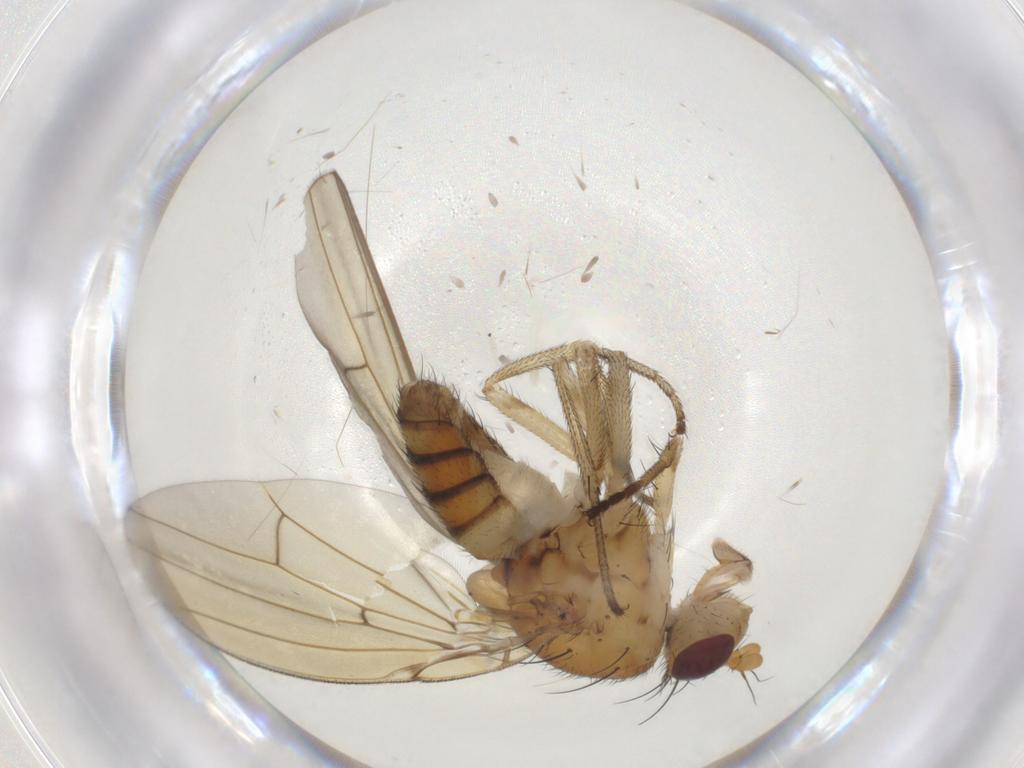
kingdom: Animalia
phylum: Arthropoda
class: Insecta
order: Diptera
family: Lauxaniidae
